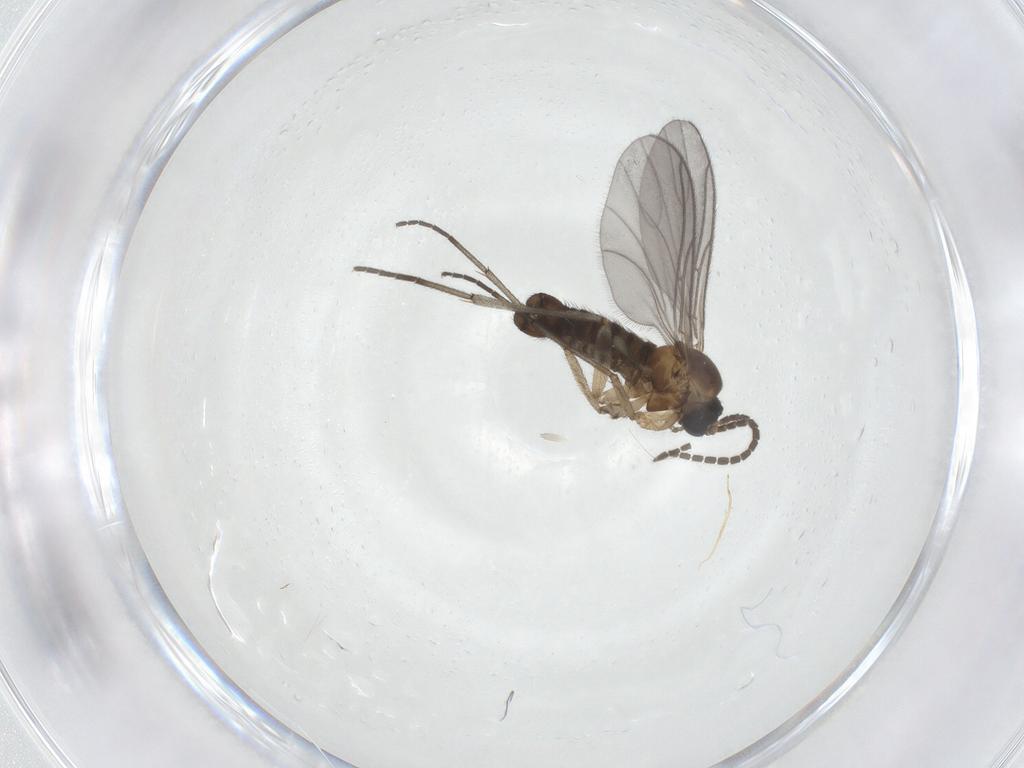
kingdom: Animalia
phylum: Arthropoda
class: Insecta
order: Diptera
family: Sciaridae
